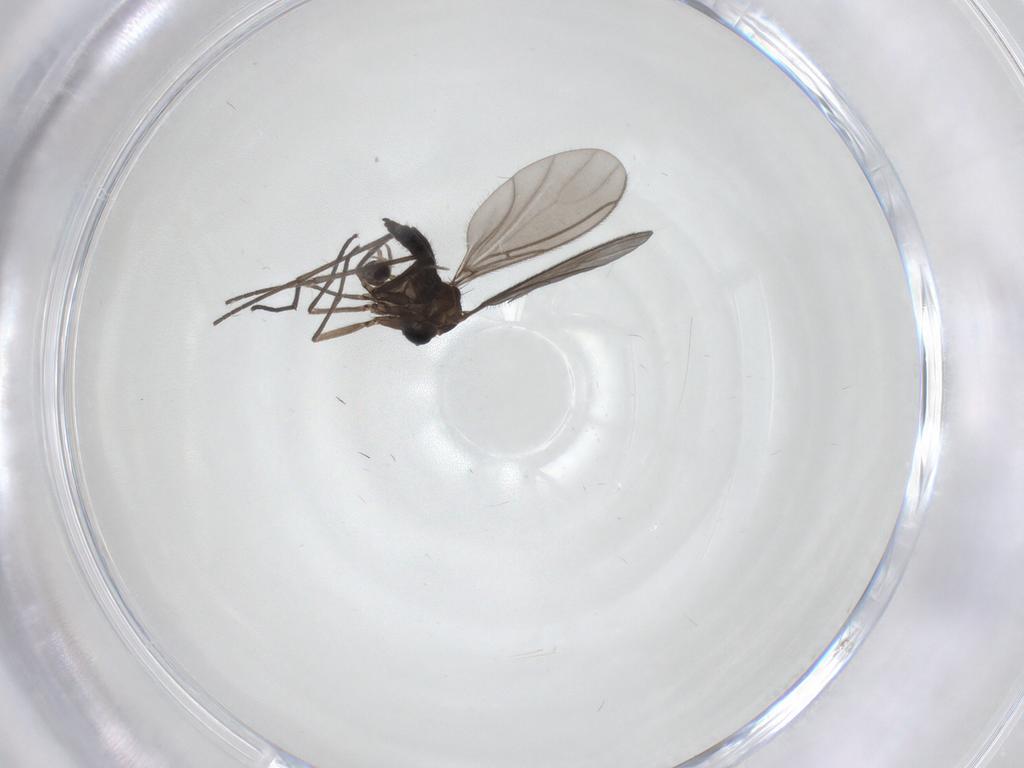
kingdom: Animalia
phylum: Arthropoda
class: Insecta
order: Diptera
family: Sciaridae
